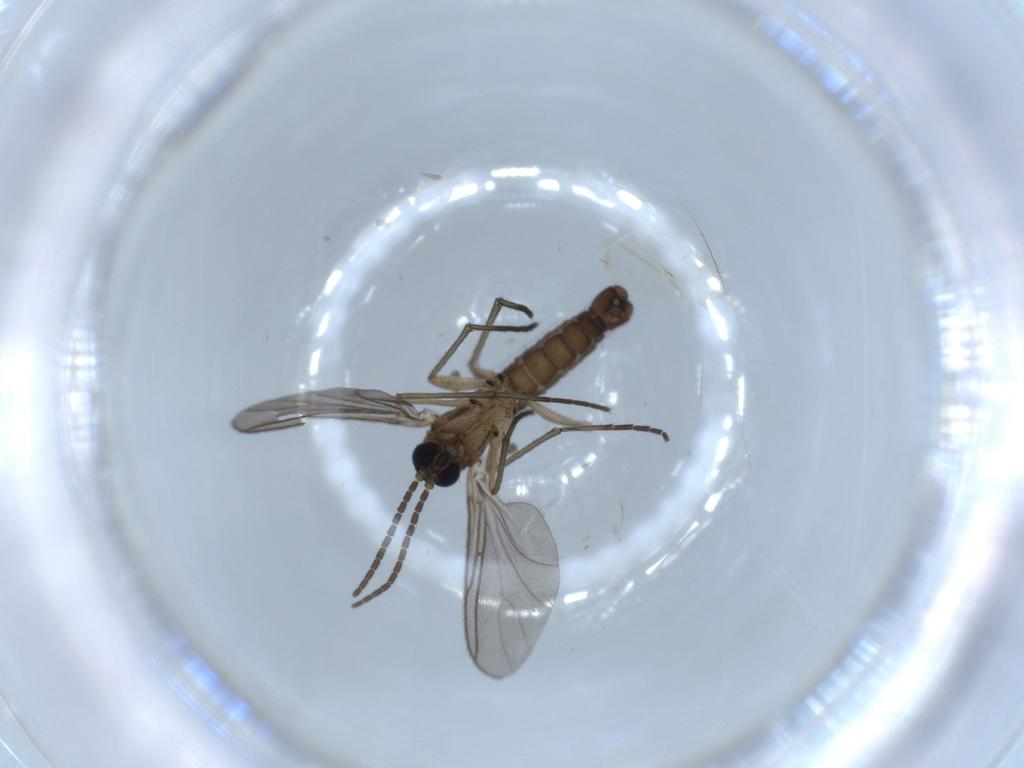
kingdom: Animalia
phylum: Arthropoda
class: Insecta
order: Diptera
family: Sciaridae
